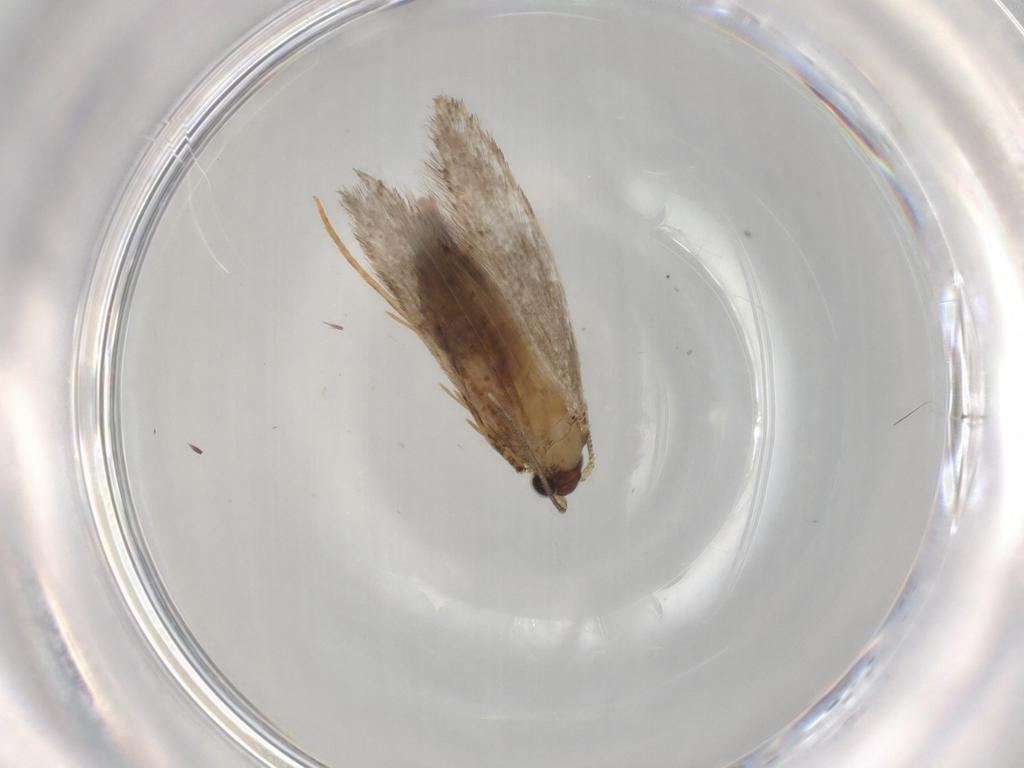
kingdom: Animalia
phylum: Arthropoda
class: Insecta
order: Lepidoptera
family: Tineidae
